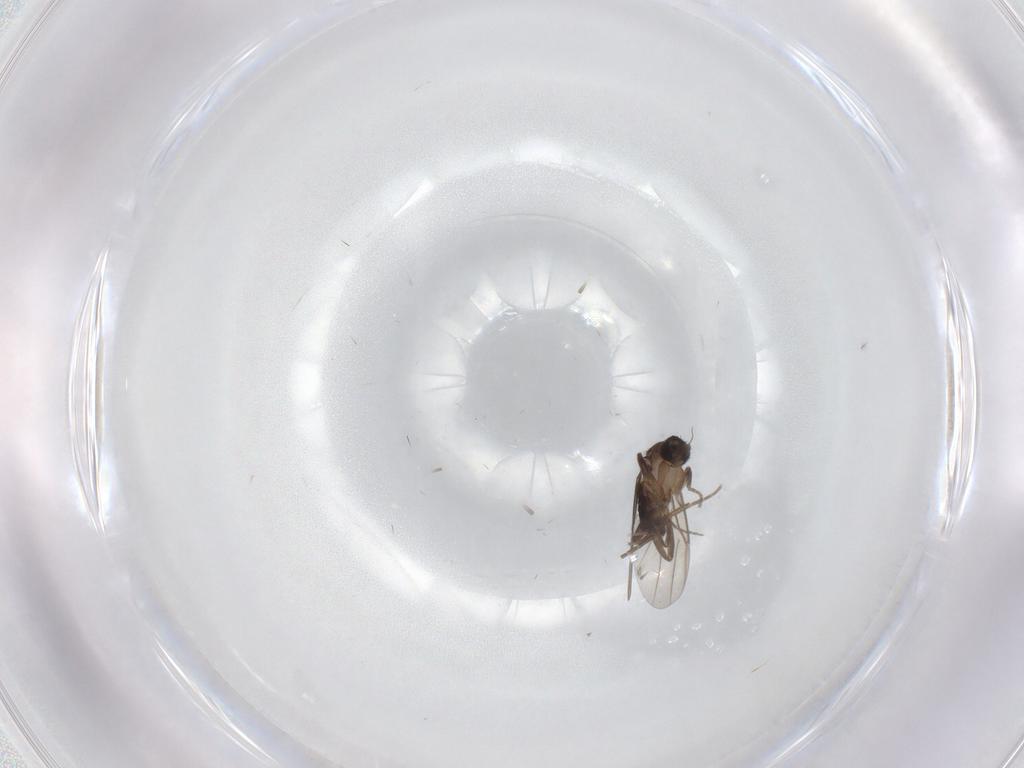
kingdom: Animalia
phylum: Arthropoda
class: Insecta
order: Diptera
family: Phoridae
